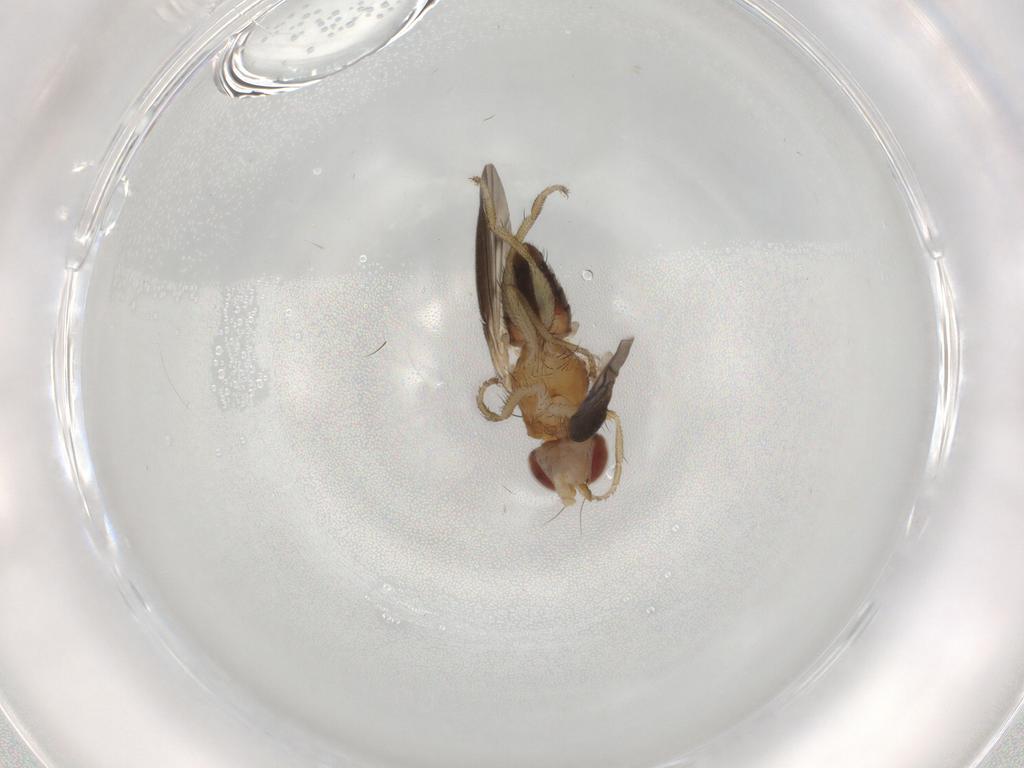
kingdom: Animalia
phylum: Arthropoda
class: Insecta
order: Diptera
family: Heleomyzidae
